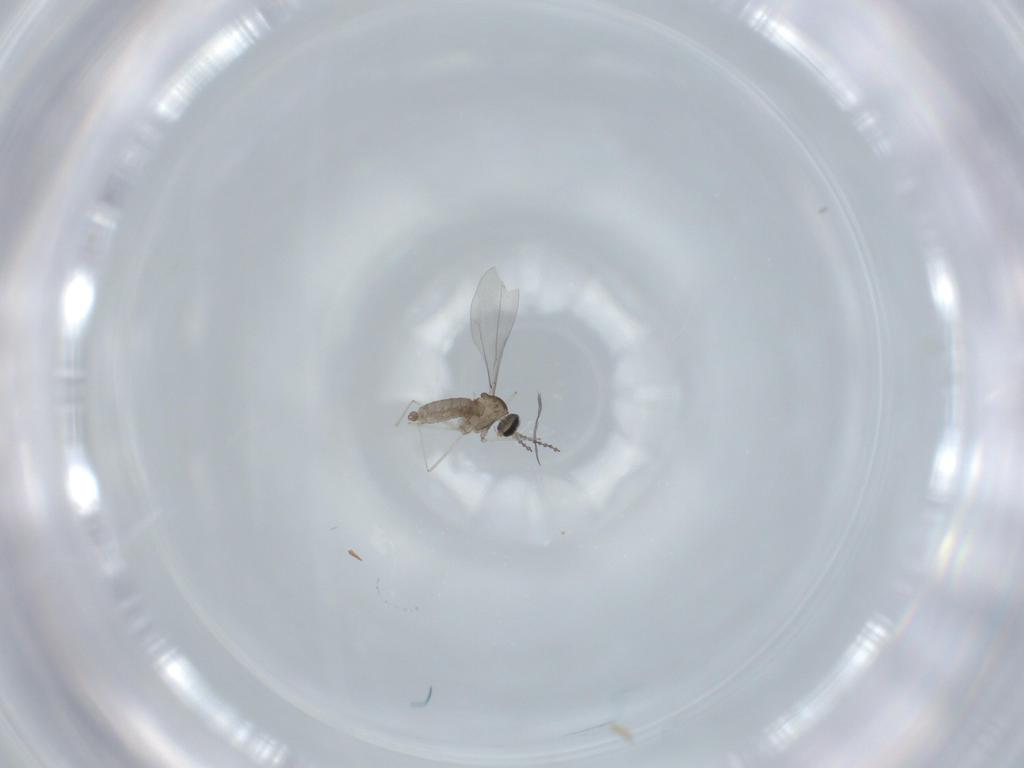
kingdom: Animalia
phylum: Arthropoda
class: Insecta
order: Diptera
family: Cecidomyiidae
